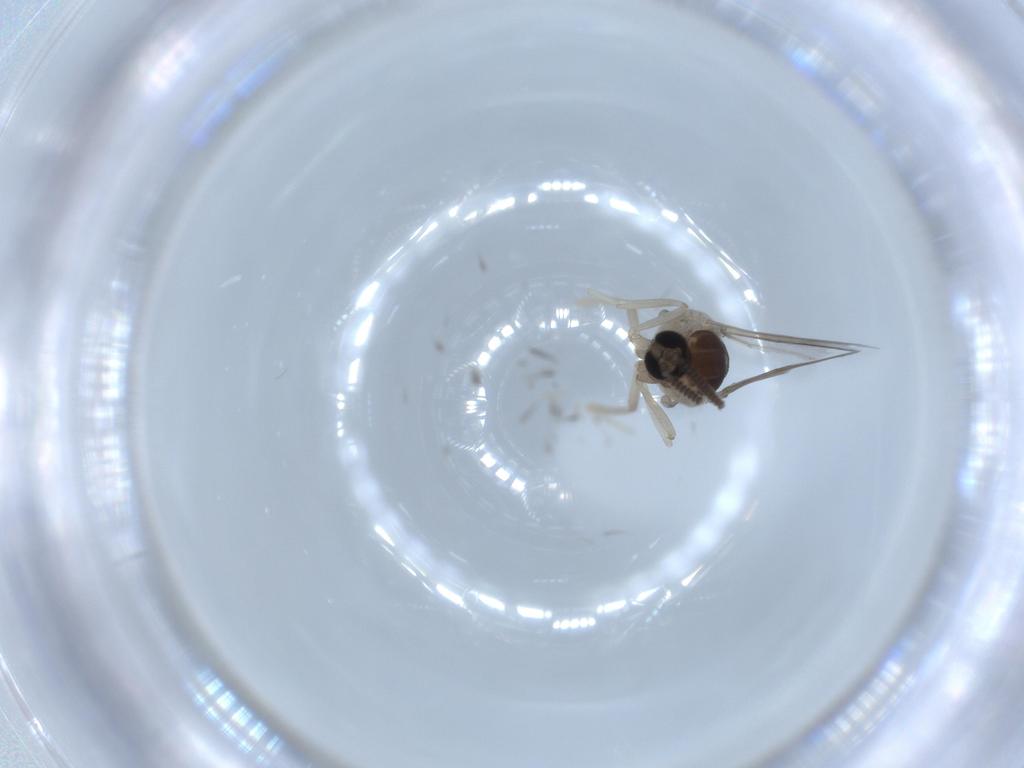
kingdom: Animalia
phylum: Arthropoda
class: Insecta
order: Diptera
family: Cecidomyiidae
